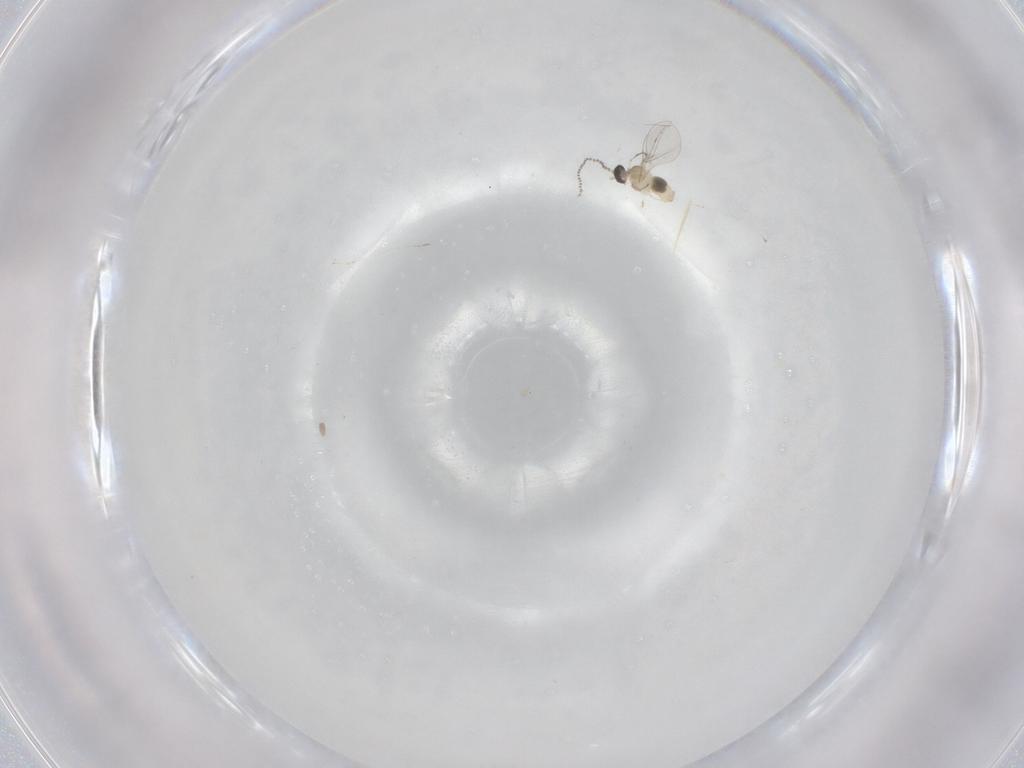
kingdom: Animalia
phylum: Arthropoda
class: Insecta
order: Diptera
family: Cecidomyiidae
